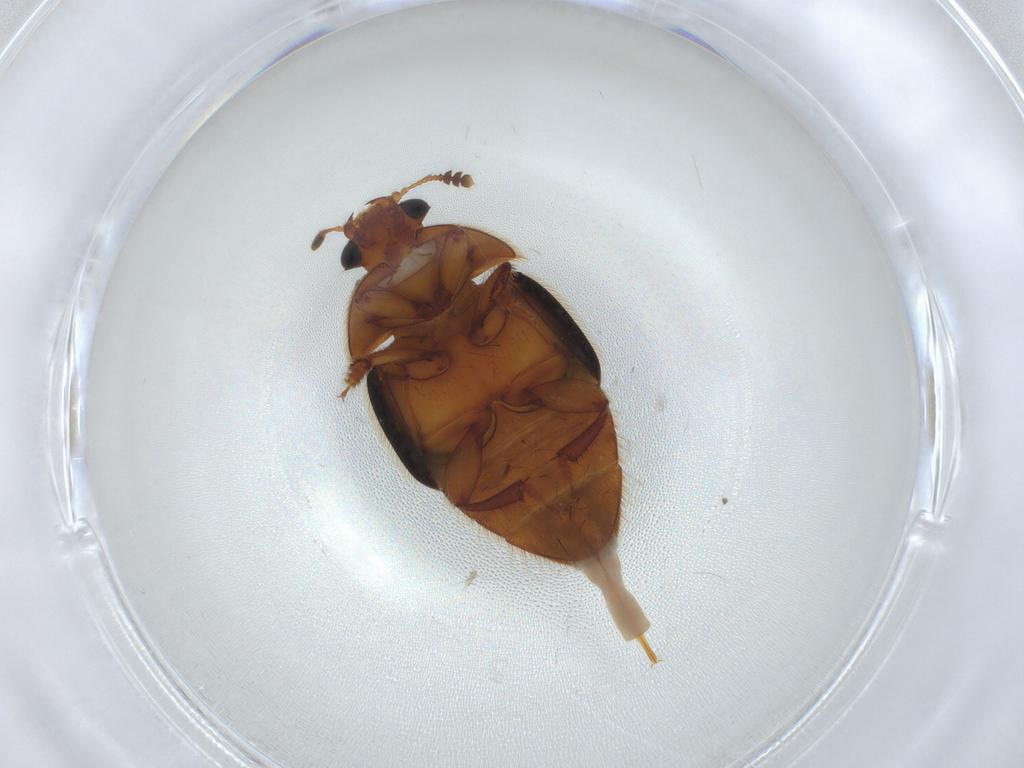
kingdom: Animalia
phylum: Arthropoda
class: Insecta
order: Coleoptera
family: Nitidulidae
